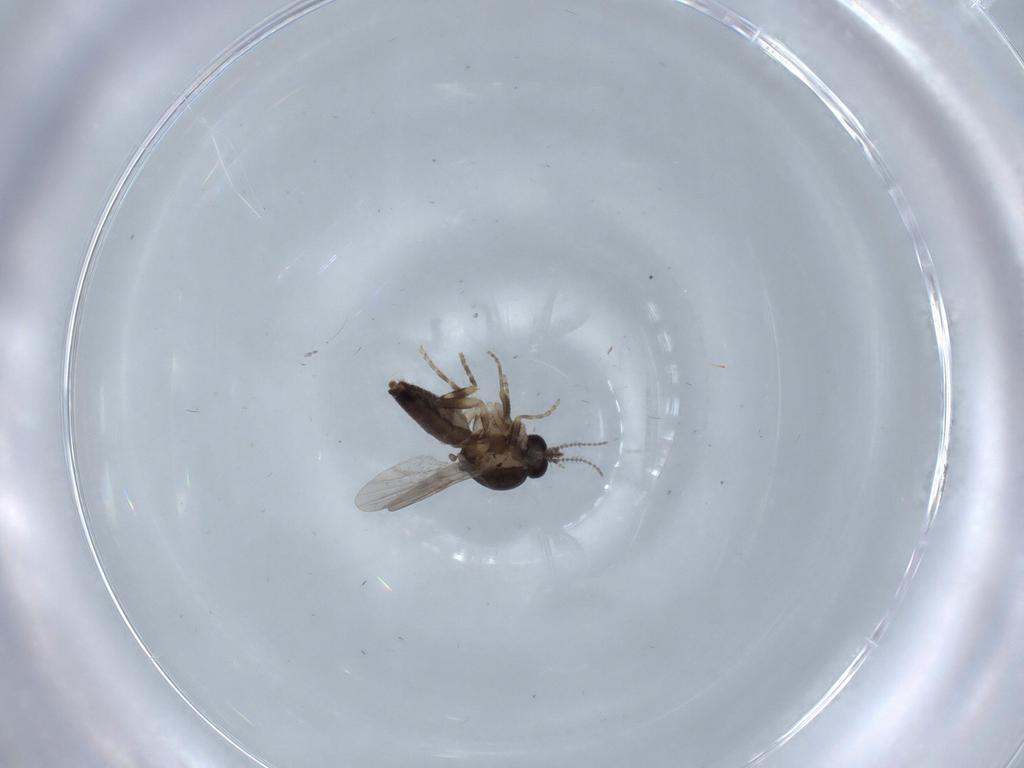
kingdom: Animalia
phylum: Arthropoda
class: Insecta
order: Diptera
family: Ceratopogonidae
